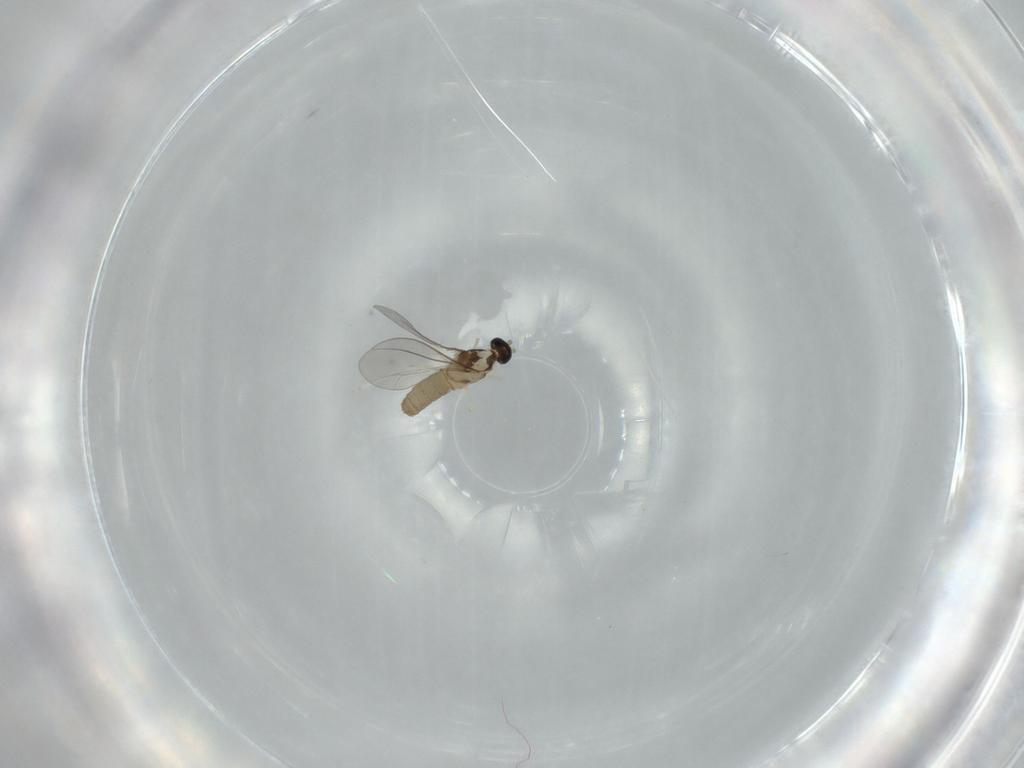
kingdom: Animalia
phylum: Arthropoda
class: Insecta
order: Diptera
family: Cecidomyiidae
